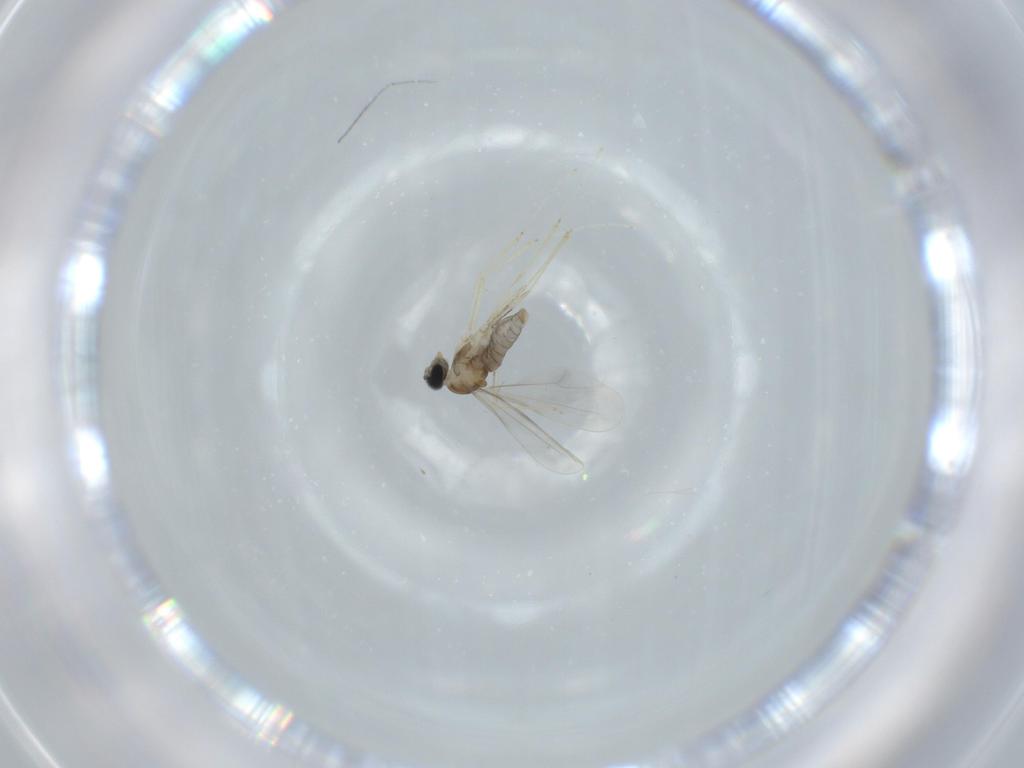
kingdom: Animalia
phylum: Arthropoda
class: Insecta
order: Diptera
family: Cecidomyiidae
